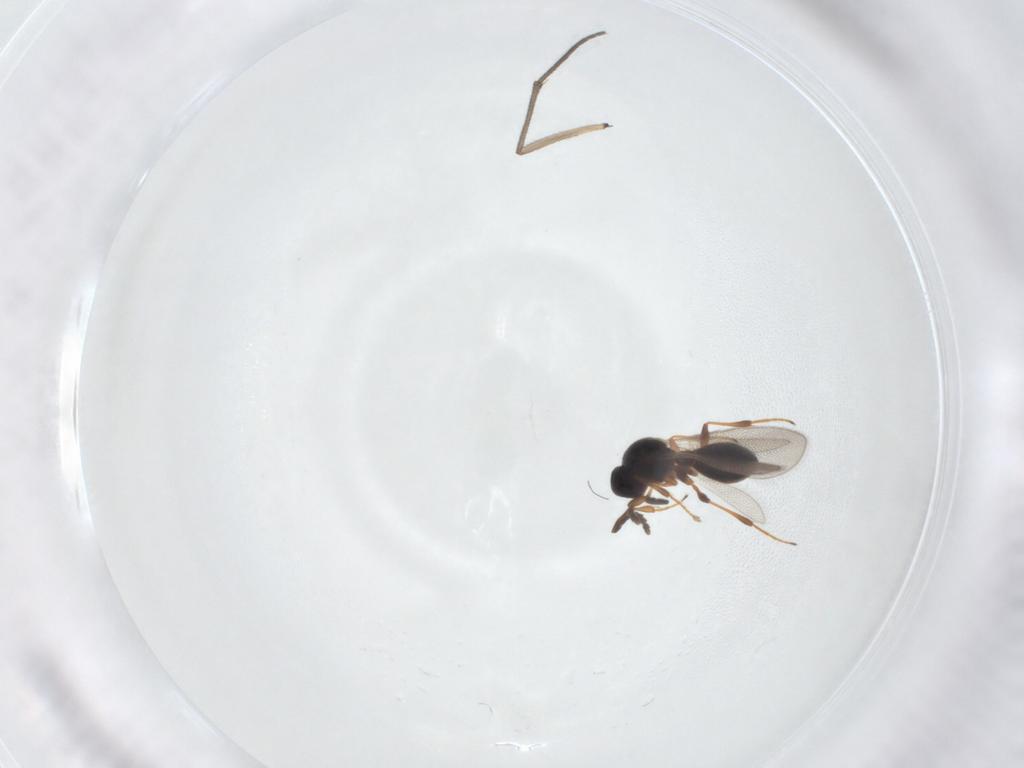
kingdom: Animalia
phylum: Arthropoda
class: Insecta
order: Hymenoptera
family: Platygastridae
